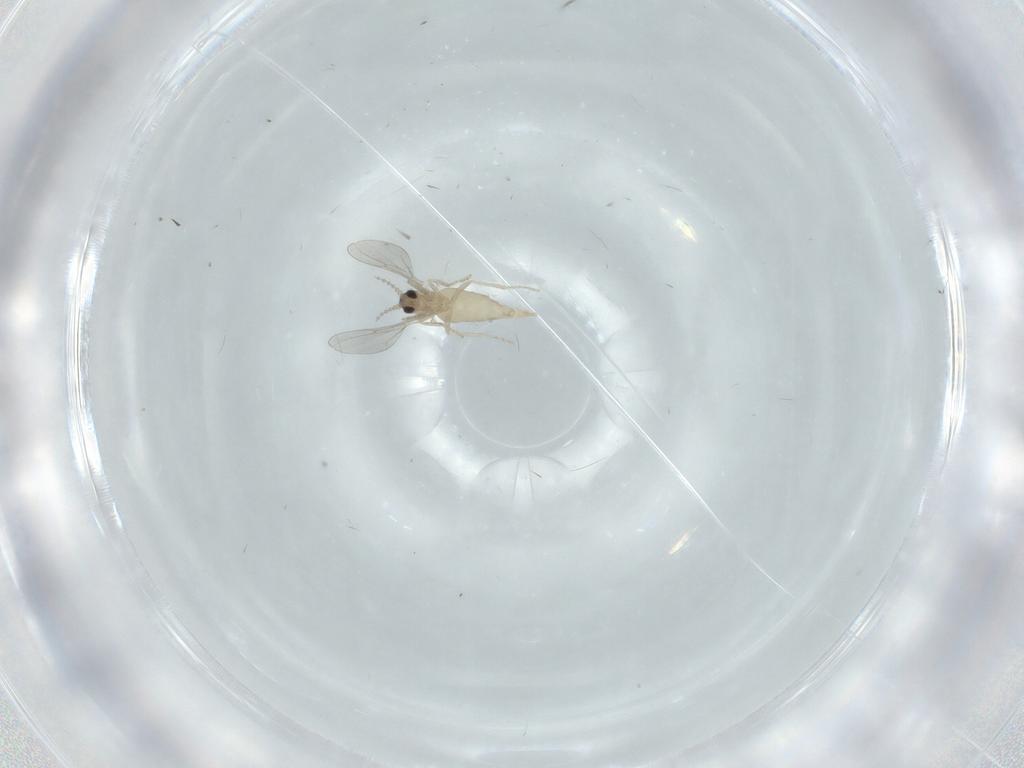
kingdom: Animalia
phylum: Arthropoda
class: Insecta
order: Diptera
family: Cecidomyiidae
